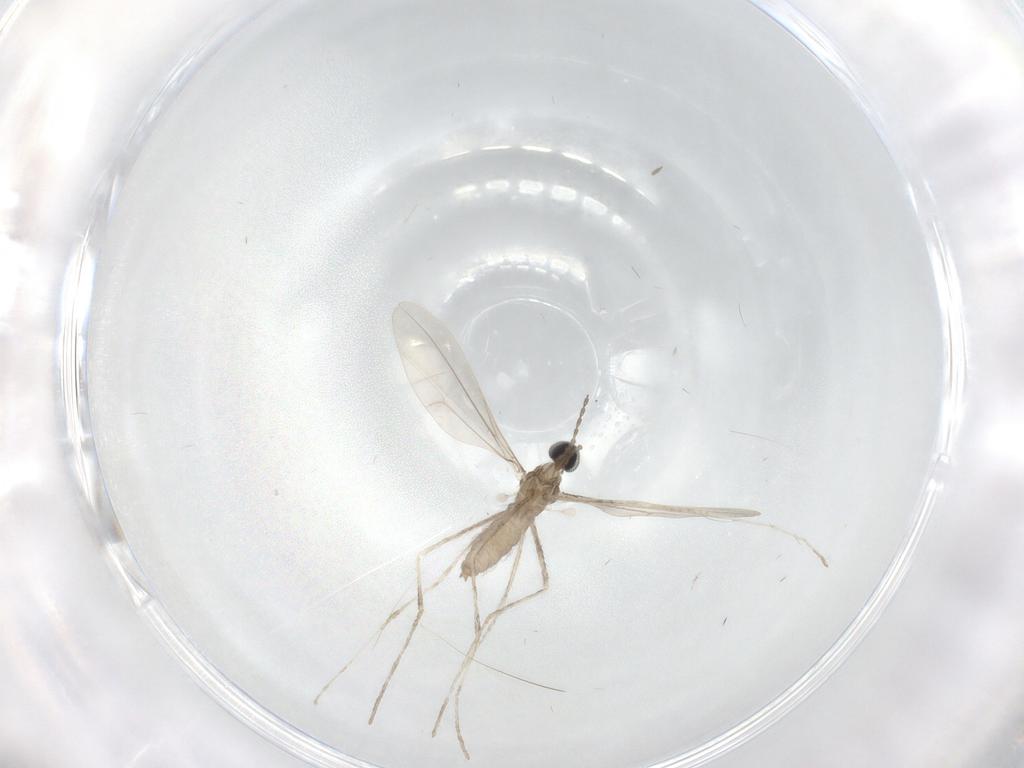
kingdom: Animalia
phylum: Arthropoda
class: Insecta
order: Diptera
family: Cecidomyiidae
